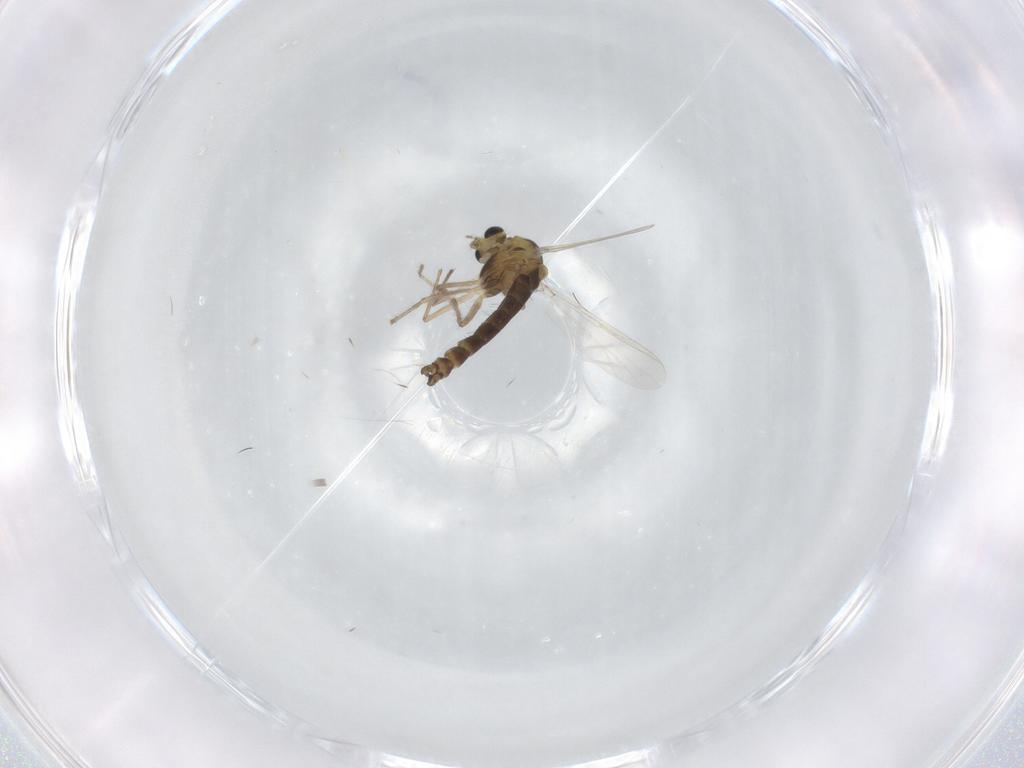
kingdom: Animalia
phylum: Arthropoda
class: Insecta
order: Diptera
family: Chironomidae
